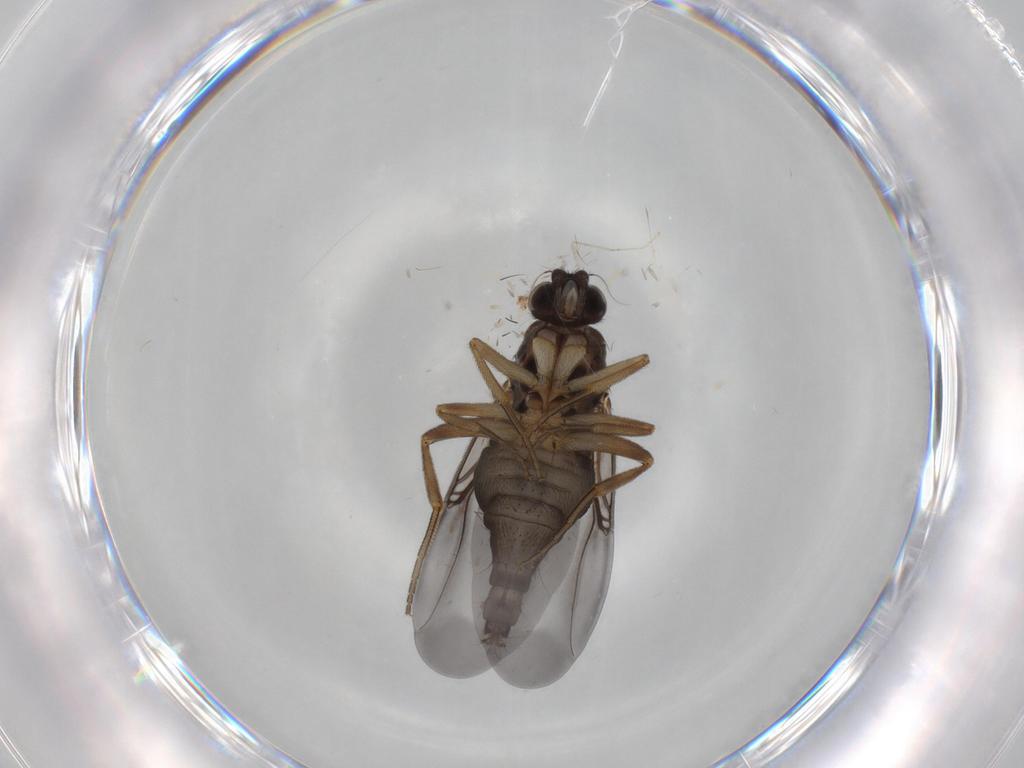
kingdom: Animalia
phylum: Arthropoda
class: Insecta
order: Diptera
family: Phoridae
